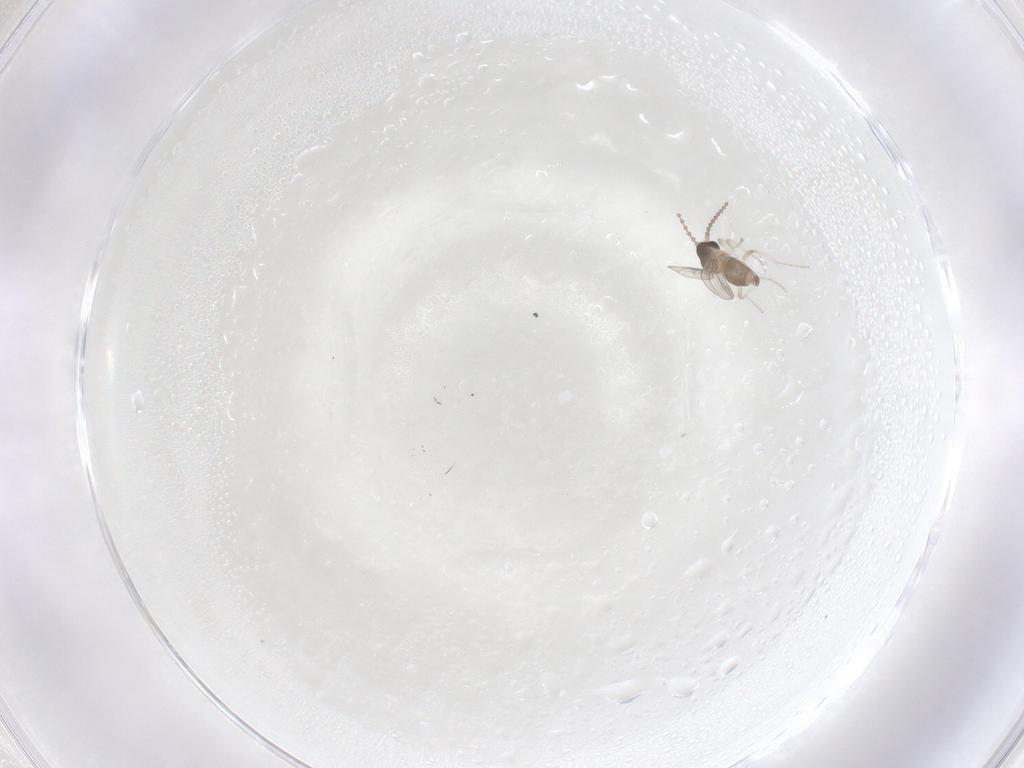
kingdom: Animalia
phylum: Arthropoda
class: Insecta
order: Diptera
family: Cecidomyiidae
